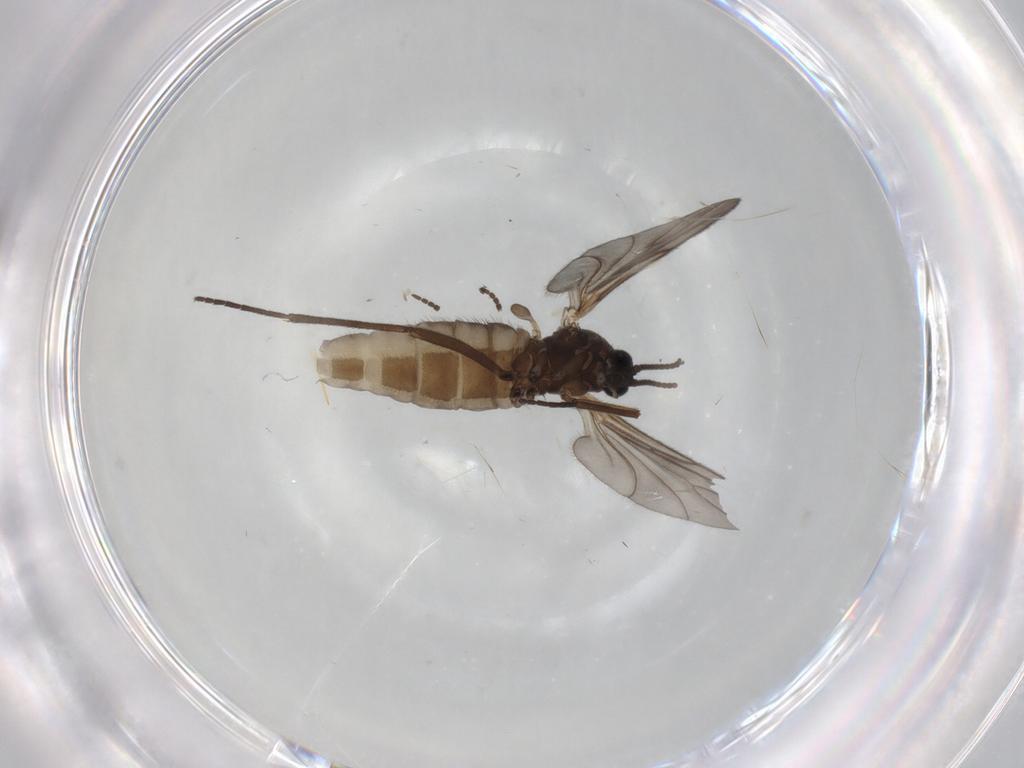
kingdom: Animalia
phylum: Arthropoda
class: Insecta
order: Diptera
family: Sciaridae
